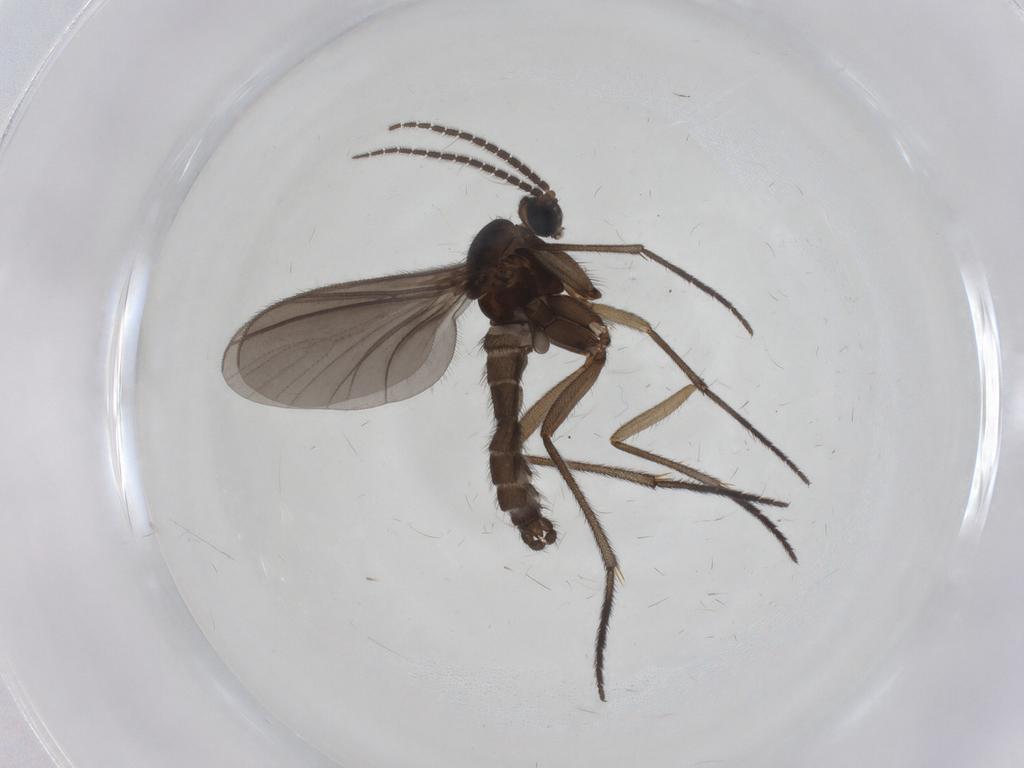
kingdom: Animalia
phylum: Arthropoda
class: Insecta
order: Diptera
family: Sciaridae
